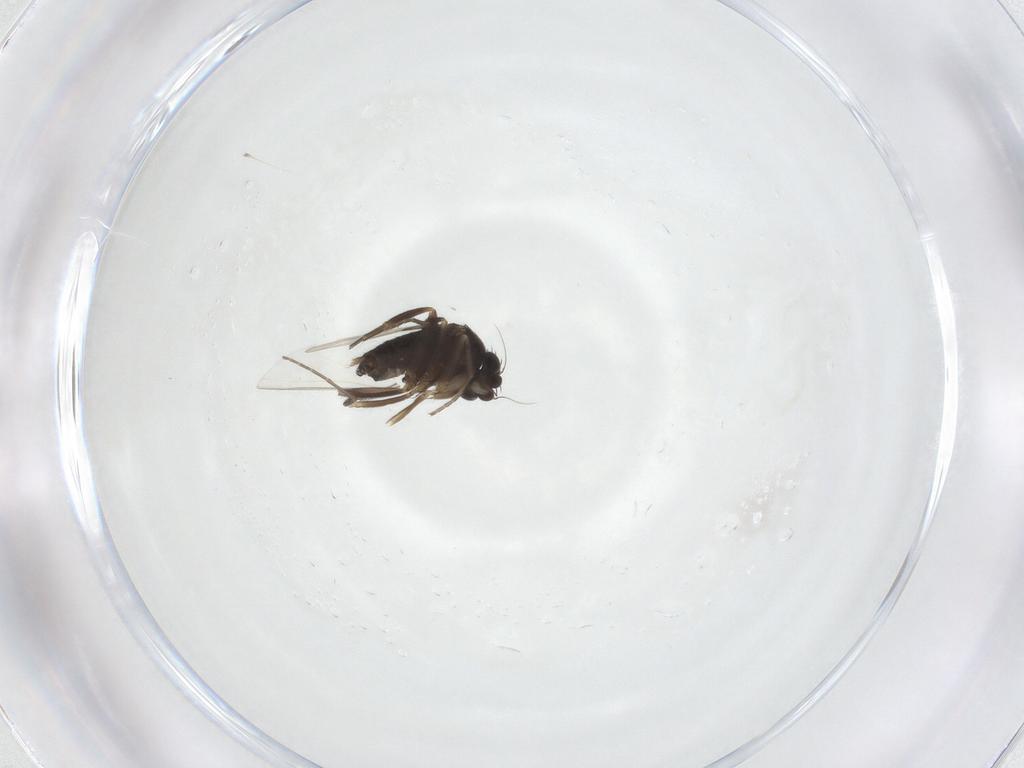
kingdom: Animalia
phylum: Arthropoda
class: Insecta
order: Diptera
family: Phoridae
